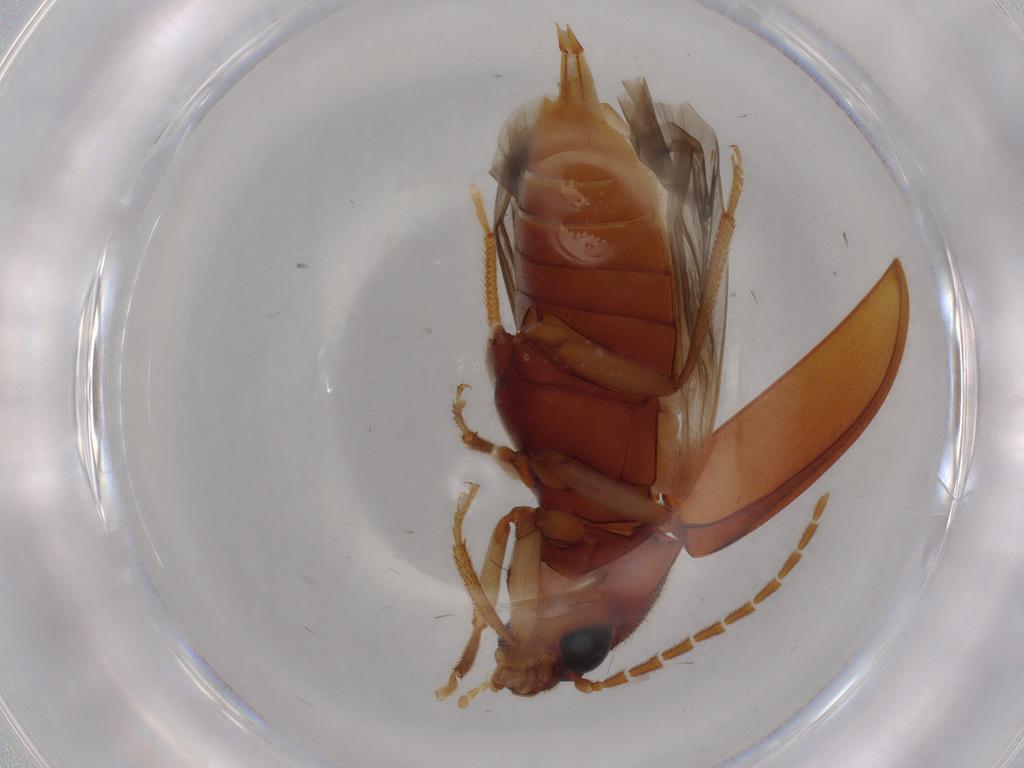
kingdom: Animalia
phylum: Arthropoda
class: Insecta
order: Coleoptera
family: Ptilodactylidae
